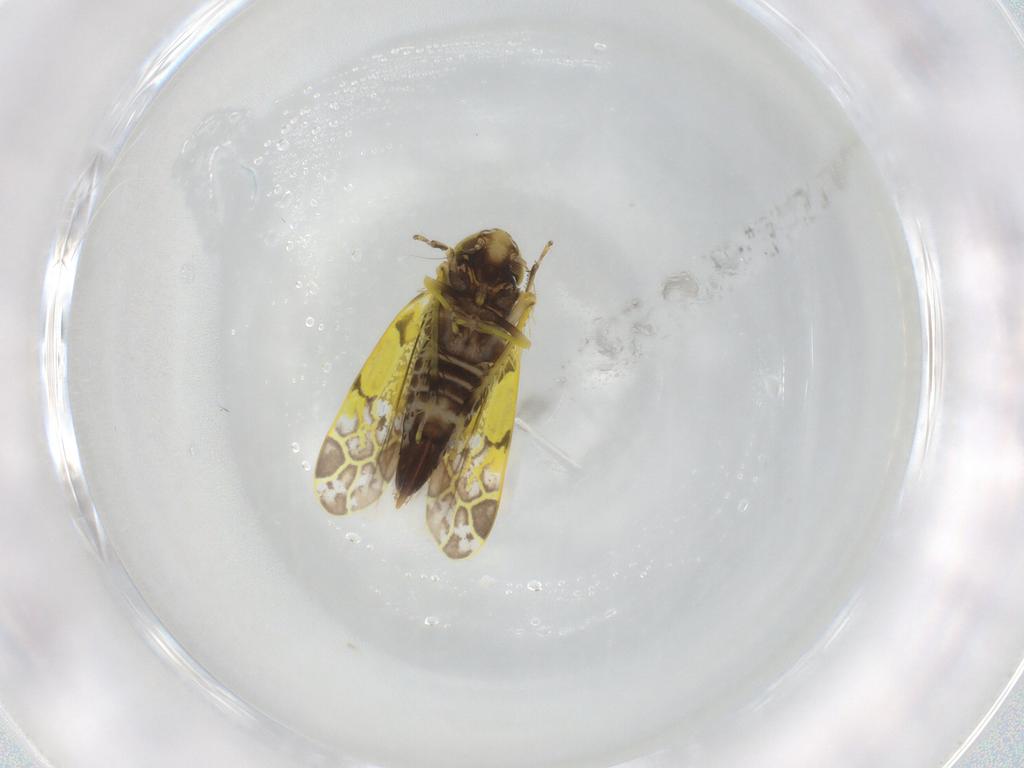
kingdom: Animalia
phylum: Arthropoda
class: Insecta
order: Hemiptera
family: Cicadellidae
